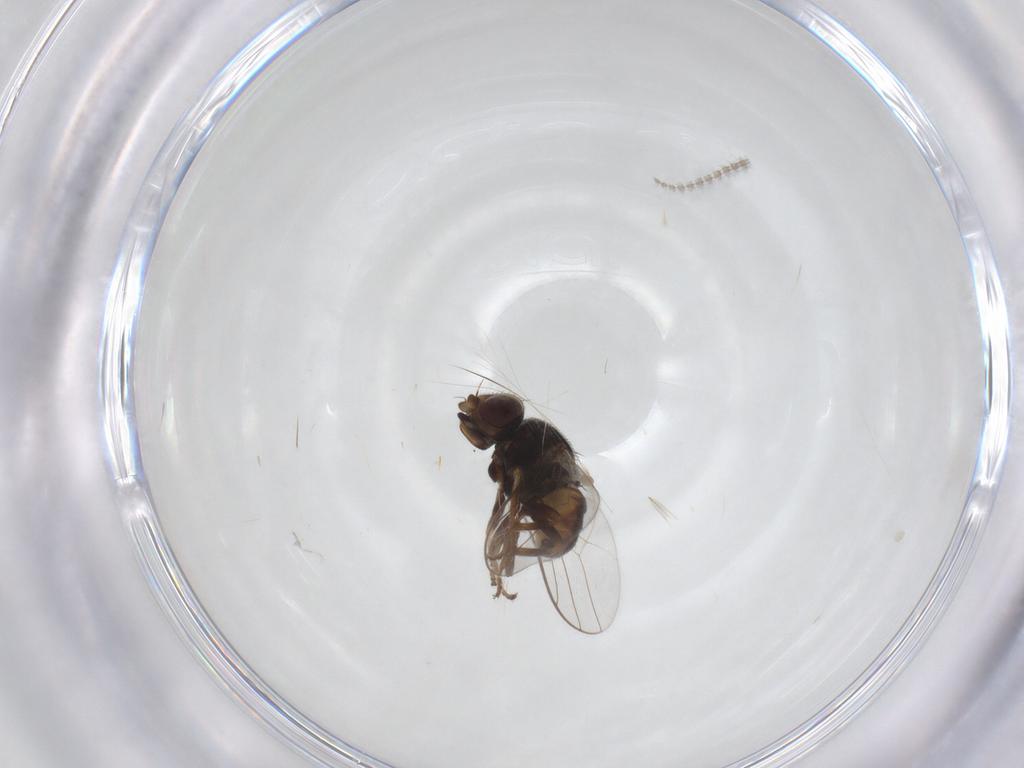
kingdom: Animalia
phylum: Arthropoda
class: Insecta
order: Diptera
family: Chloropidae
